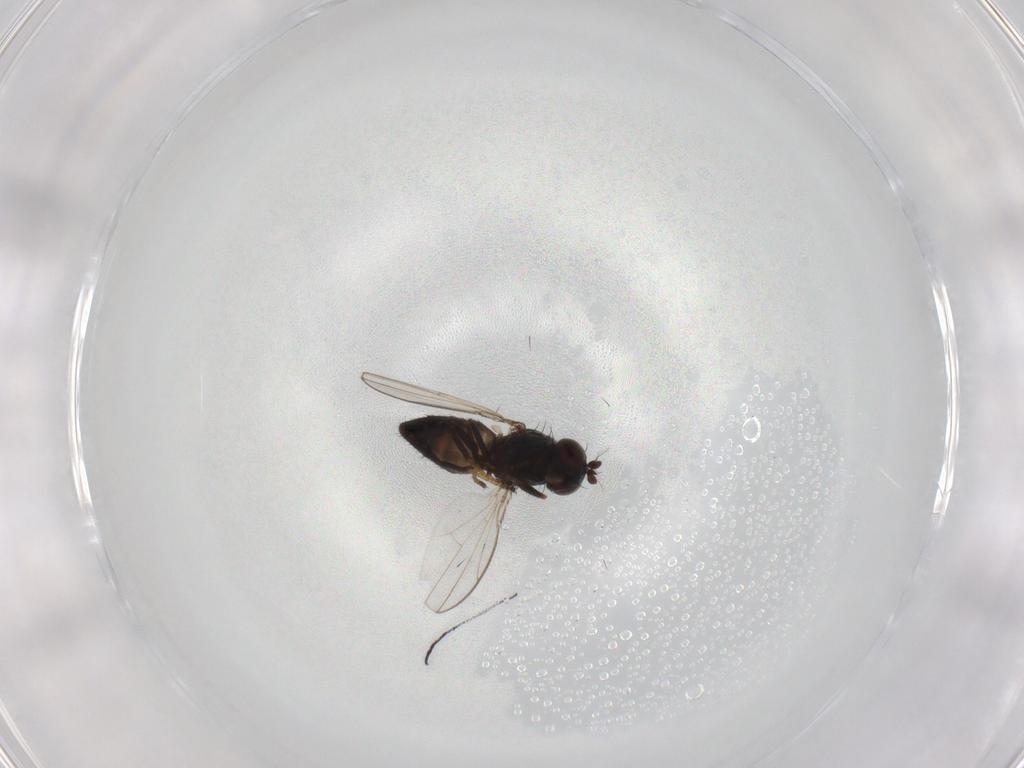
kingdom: Animalia
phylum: Arthropoda
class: Insecta
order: Diptera
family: Ephydridae
